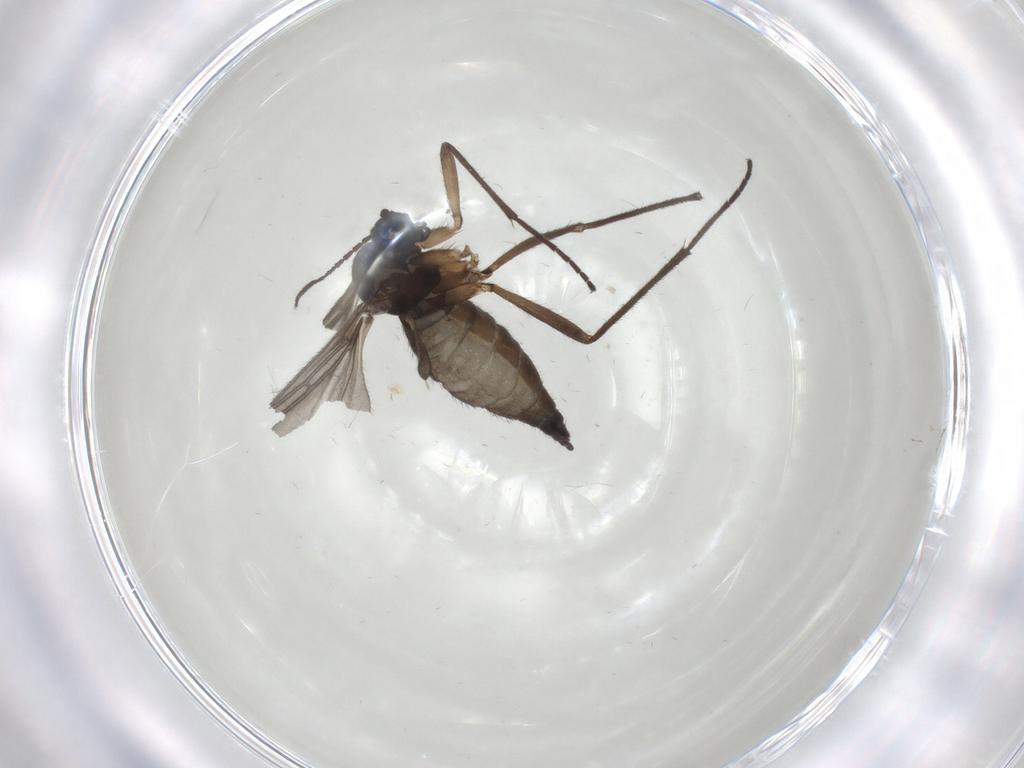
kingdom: Animalia
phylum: Arthropoda
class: Insecta
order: Diptera
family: Sciaridae
